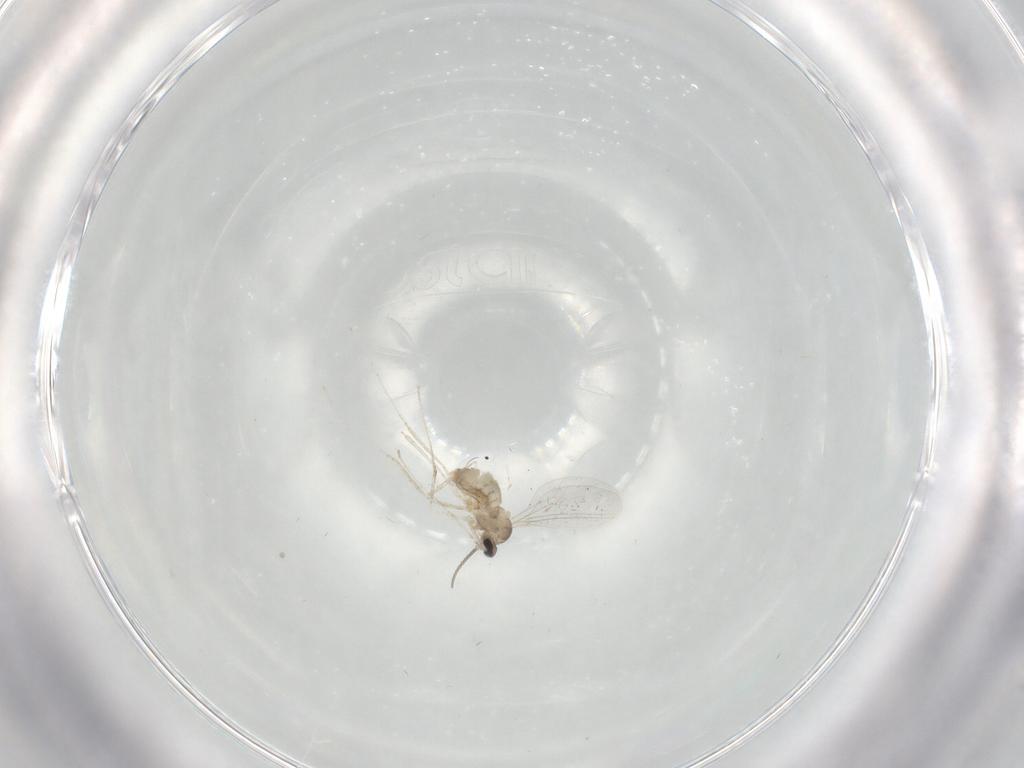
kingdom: Animalia
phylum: Arthropoda
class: Insecta
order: Diptera
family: Cecidomyiidae
